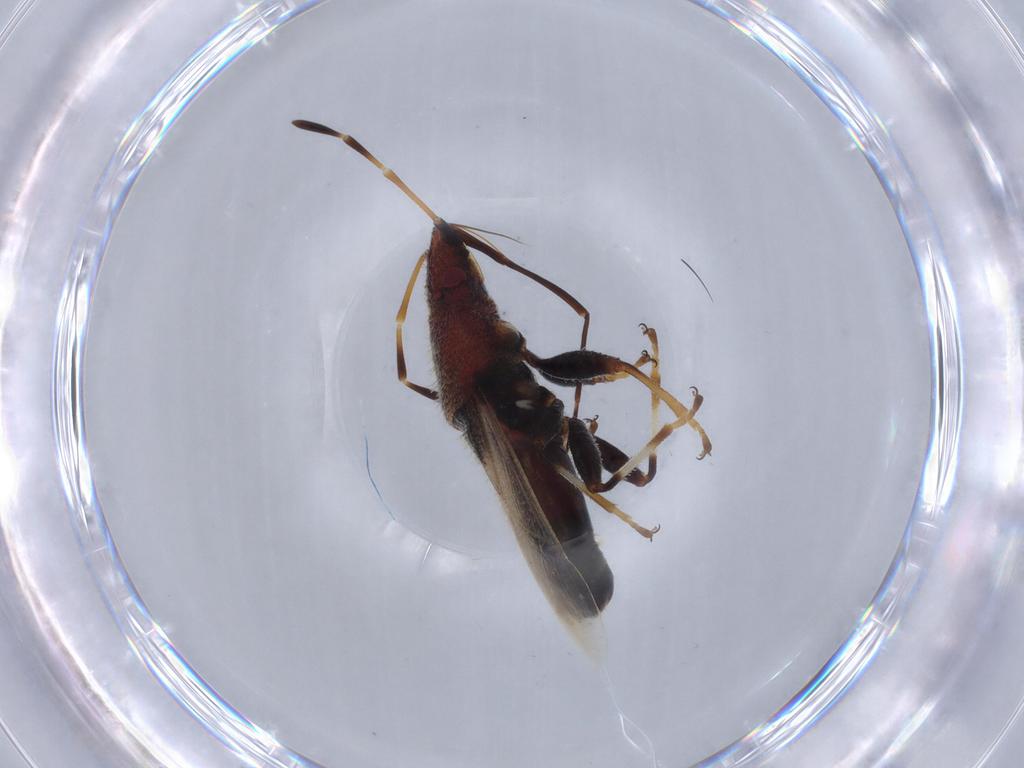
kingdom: Animalia
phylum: Arthropoda
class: Insecta
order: Hemiptera
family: Oxycarenidae
